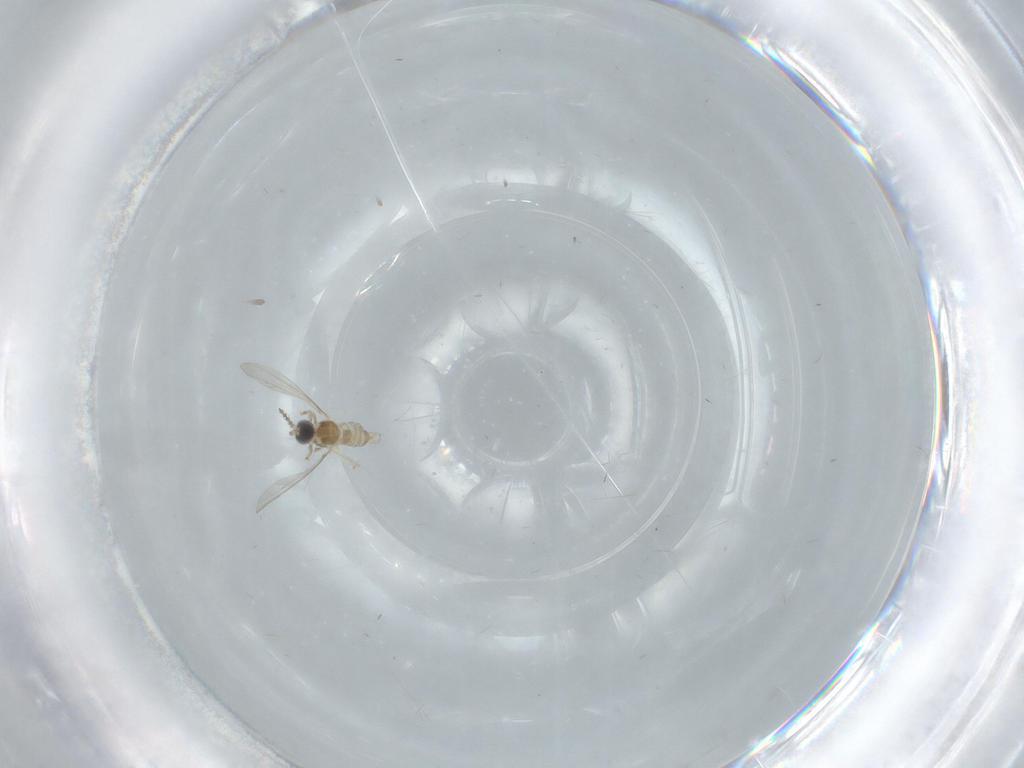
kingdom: Animalia
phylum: Arthropoda
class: Insecta
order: Diptera
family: Cecidomyiidae
